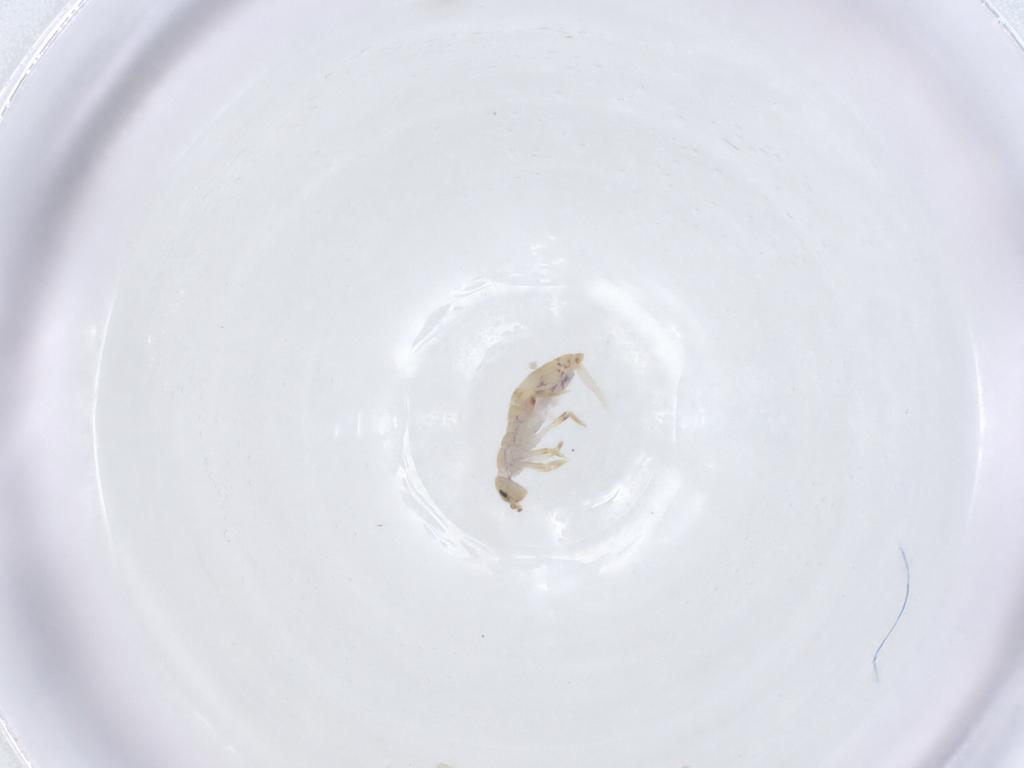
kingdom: Animalia
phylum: Arthropoda
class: Collembola
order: Entomobryomorpha
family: Entomobryidae
